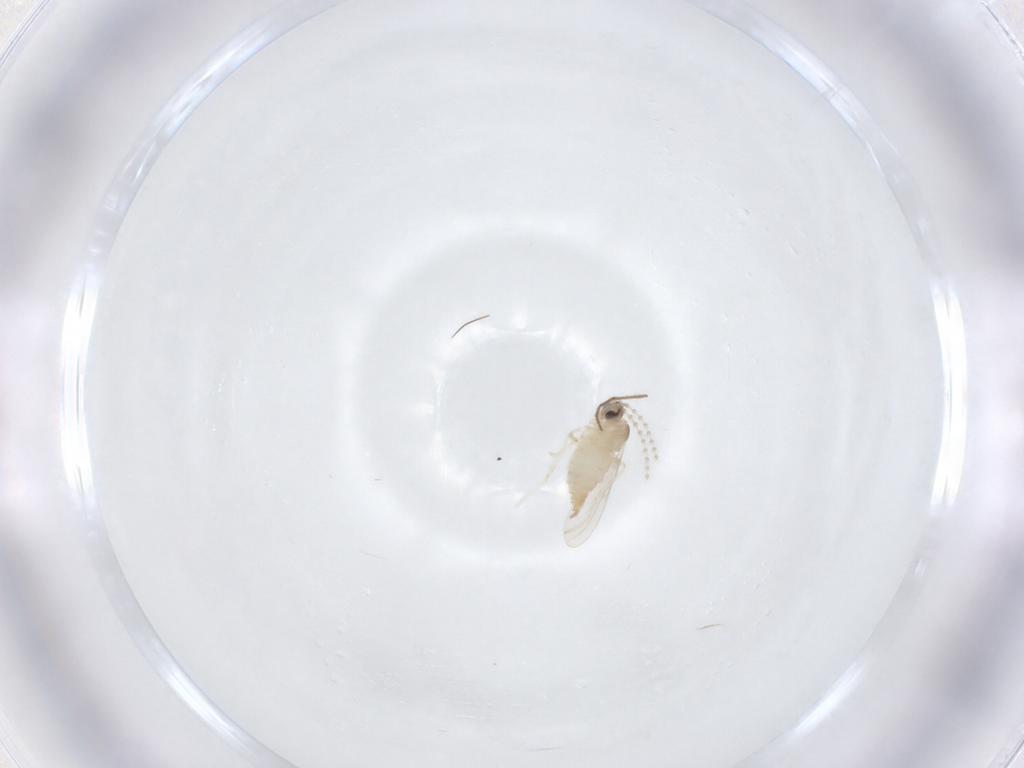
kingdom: Animalia
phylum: Arthropoda
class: Insecta
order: Diptera
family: Cecidomyiidae
